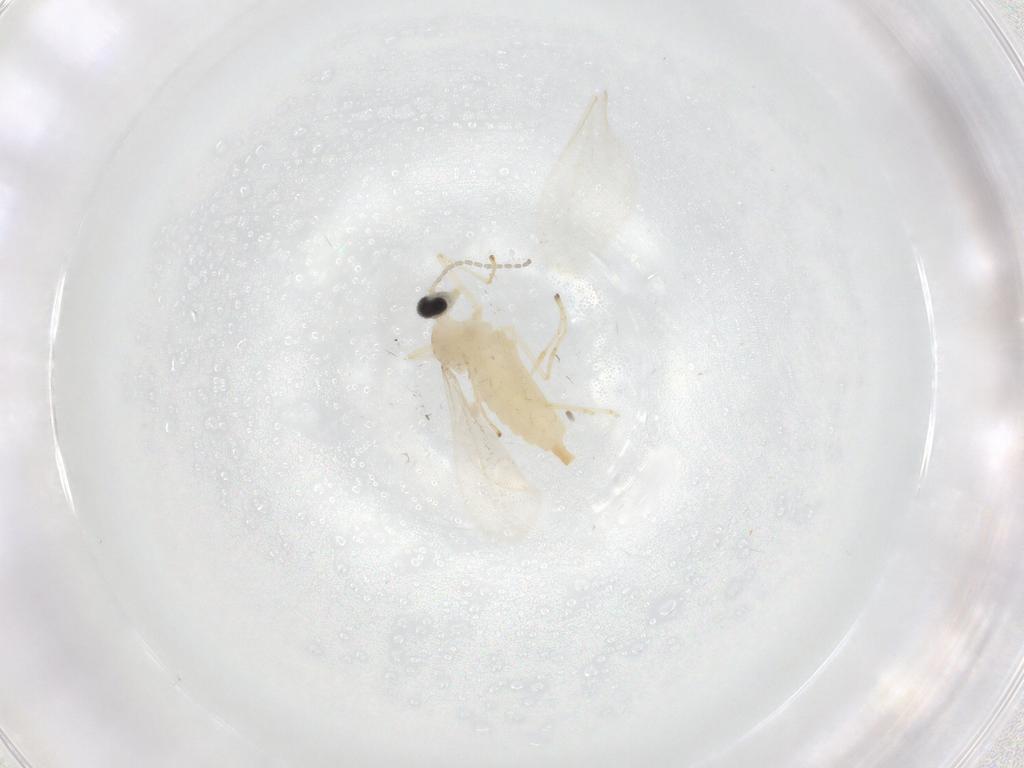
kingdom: Animalia
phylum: Arthropoda
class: Insecta
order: Diptera
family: Cecidomyiidae
